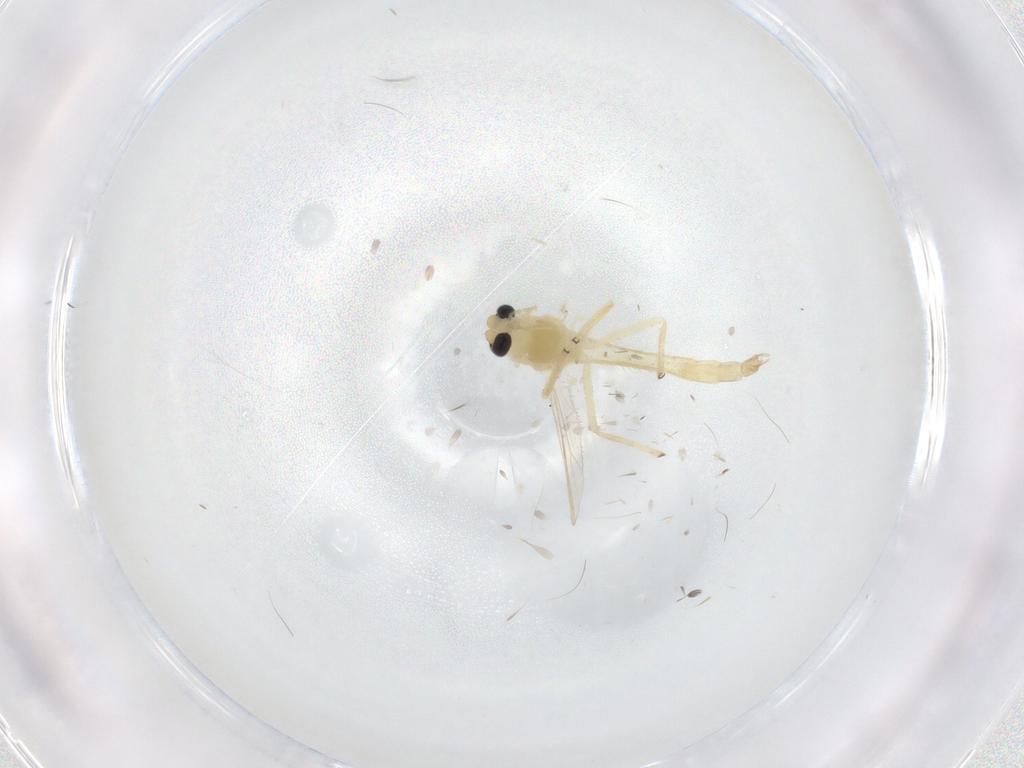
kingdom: Animalia
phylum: Arthropoda
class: Insecta
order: Diptera
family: Chironomidae
